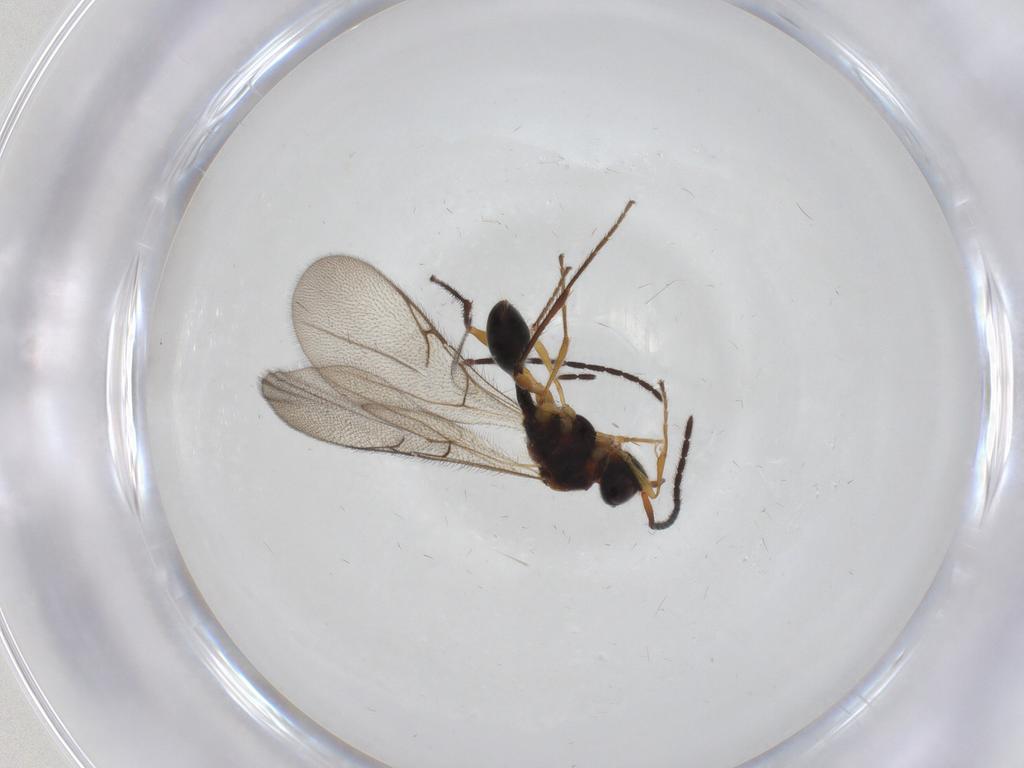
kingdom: Animalia
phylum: Arthropoda
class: Insecta
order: Hymenoptera
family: Diapriidae
